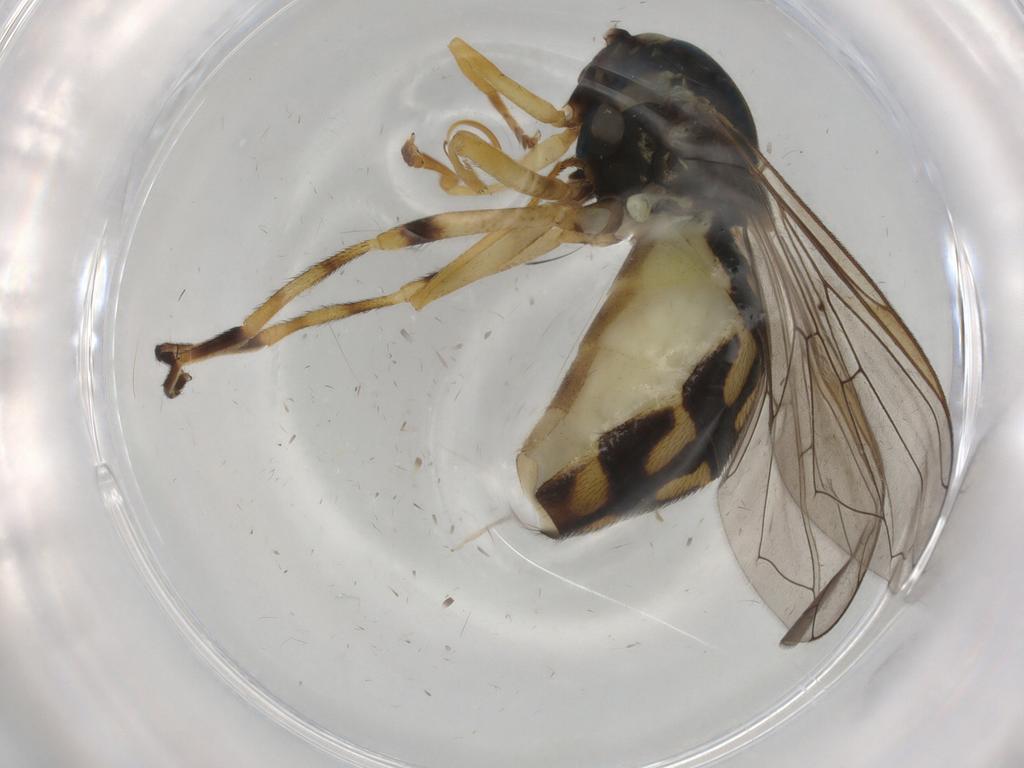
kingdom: Animalia
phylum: Arthropoda
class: Insecta
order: Diptera
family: Syrphidae
